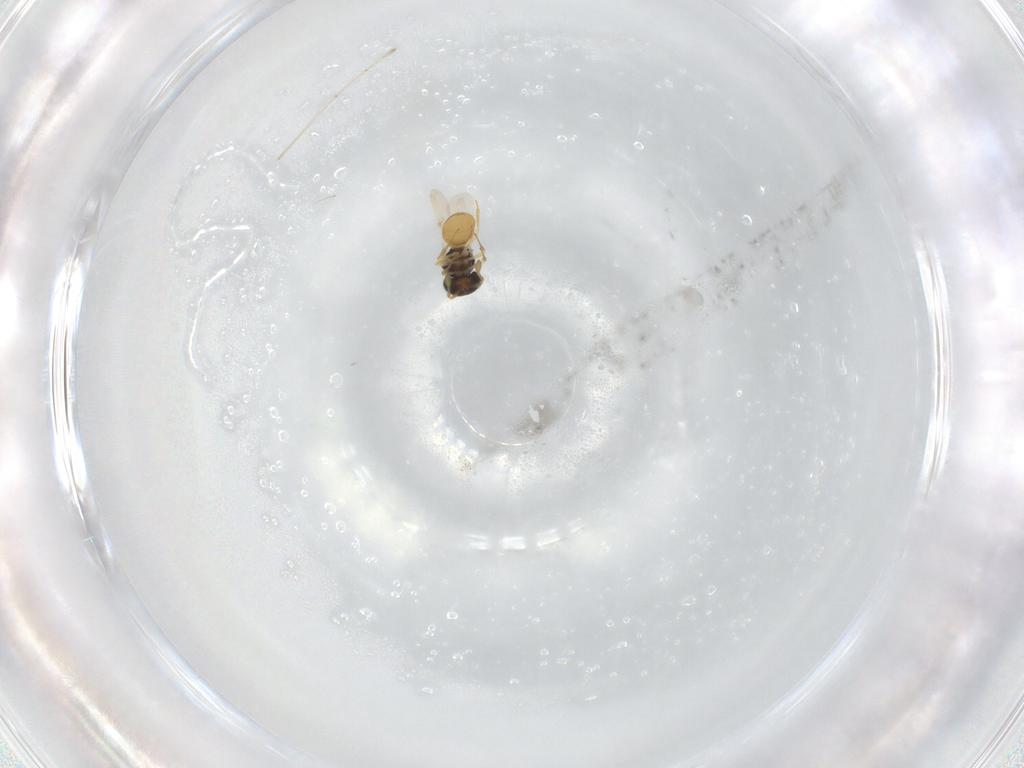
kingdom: Animalia
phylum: Arthropoda
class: Insecta
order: Hymenoptera
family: Scelionidae
